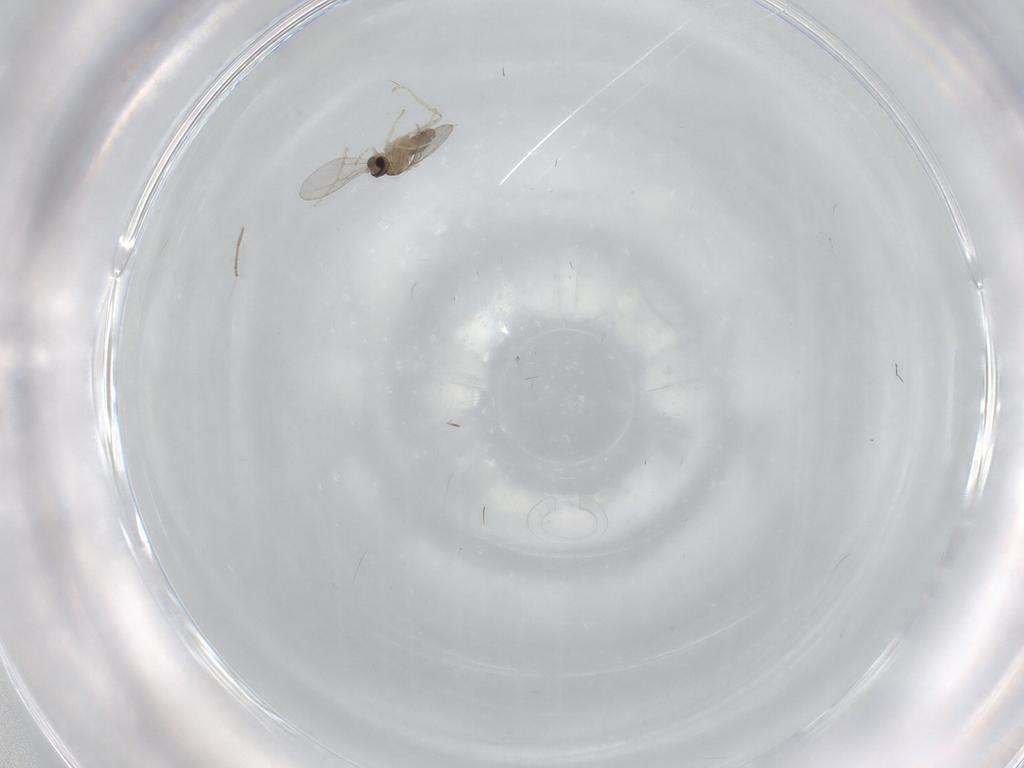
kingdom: Animalia
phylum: Arthropoda
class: Insecta
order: Diptera
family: Cecidomyiidae
